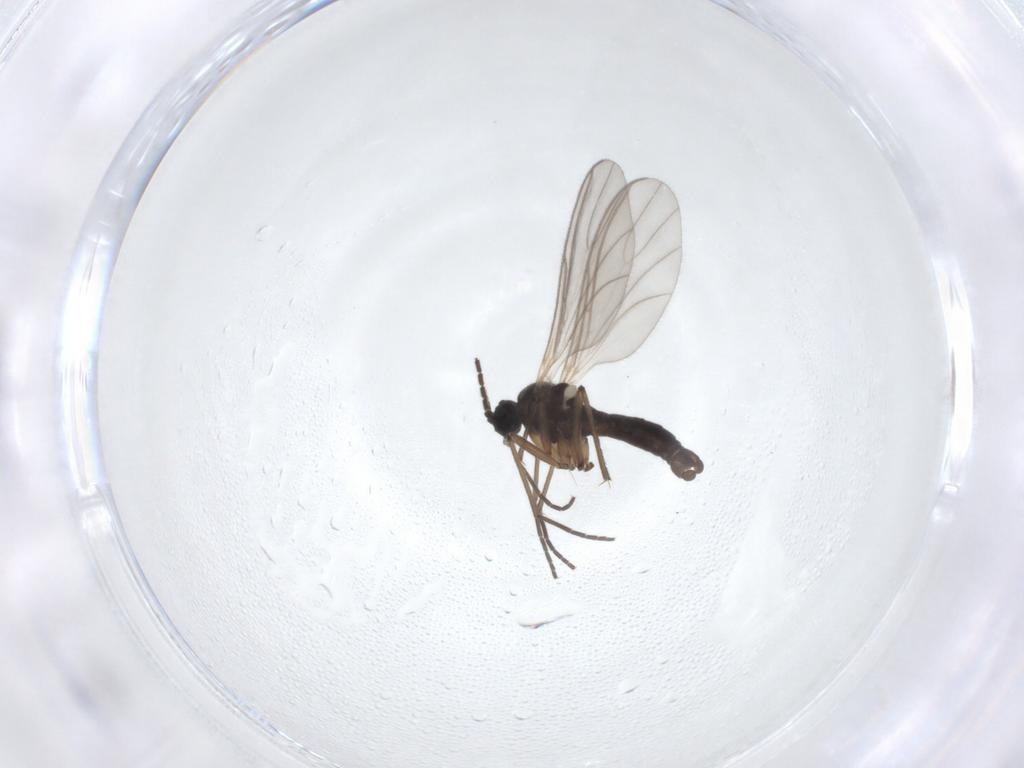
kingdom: Animalia
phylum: Arthropoda
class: Insecta
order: Diptera
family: Sciaridae
